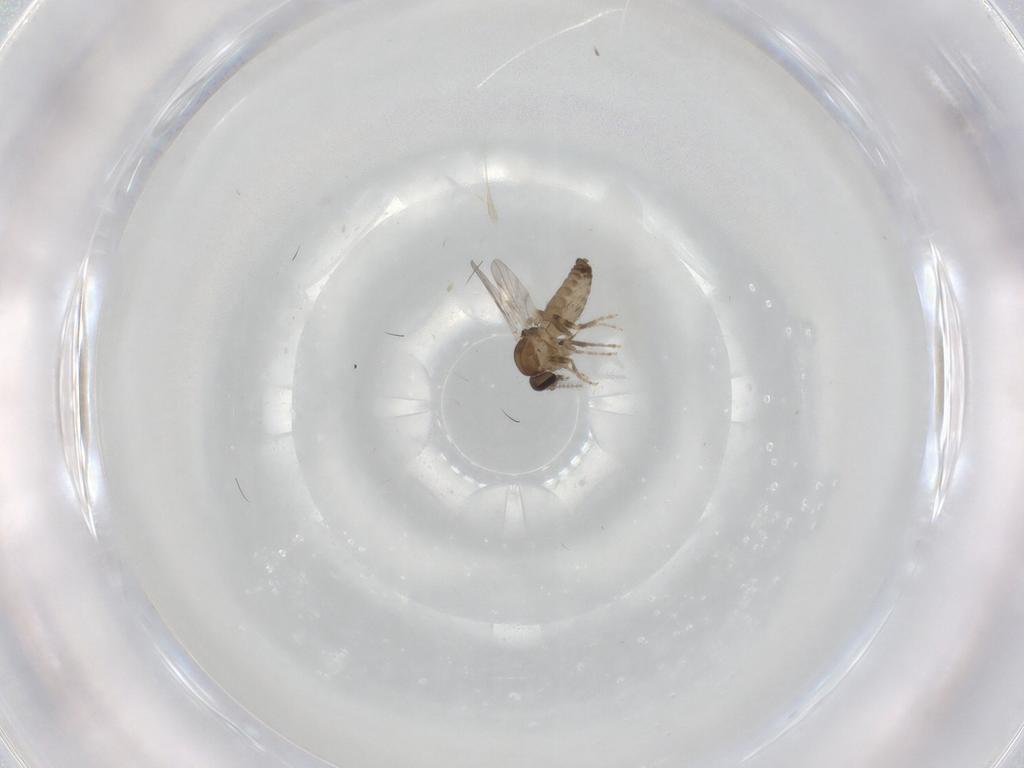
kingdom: Animalia
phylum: Arthropoda
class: Insecta
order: Diptera
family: Ceratopogonidae
